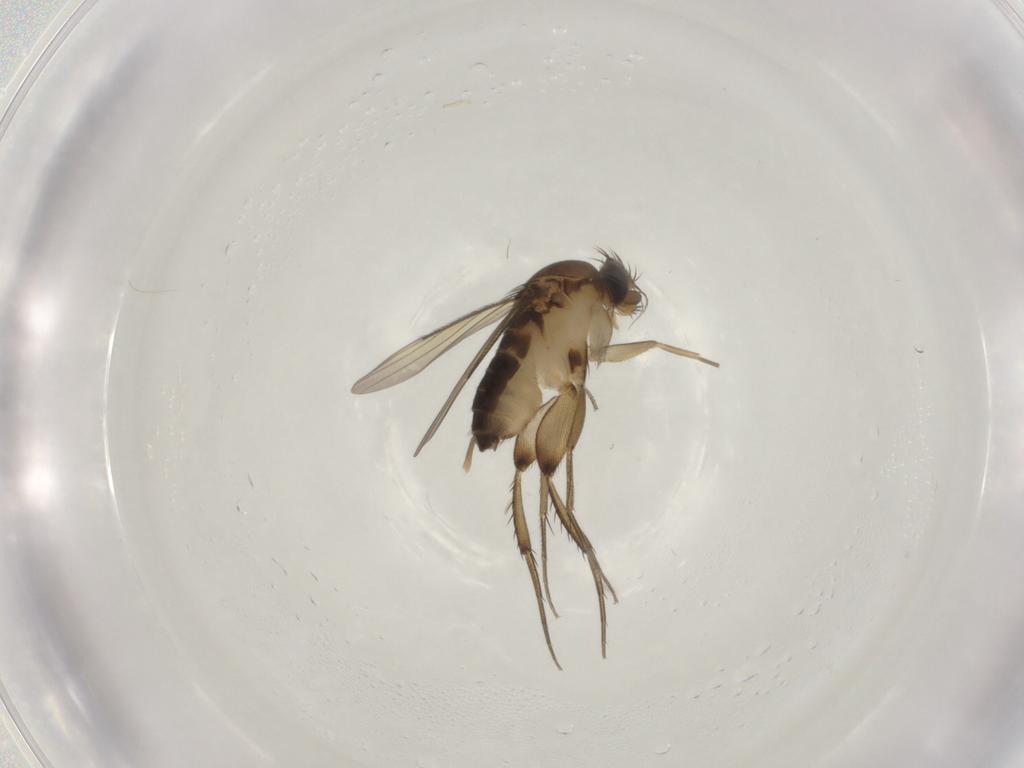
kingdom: Animalia
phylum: Arthropoda
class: Insecta
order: Diptera
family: Phoridae
